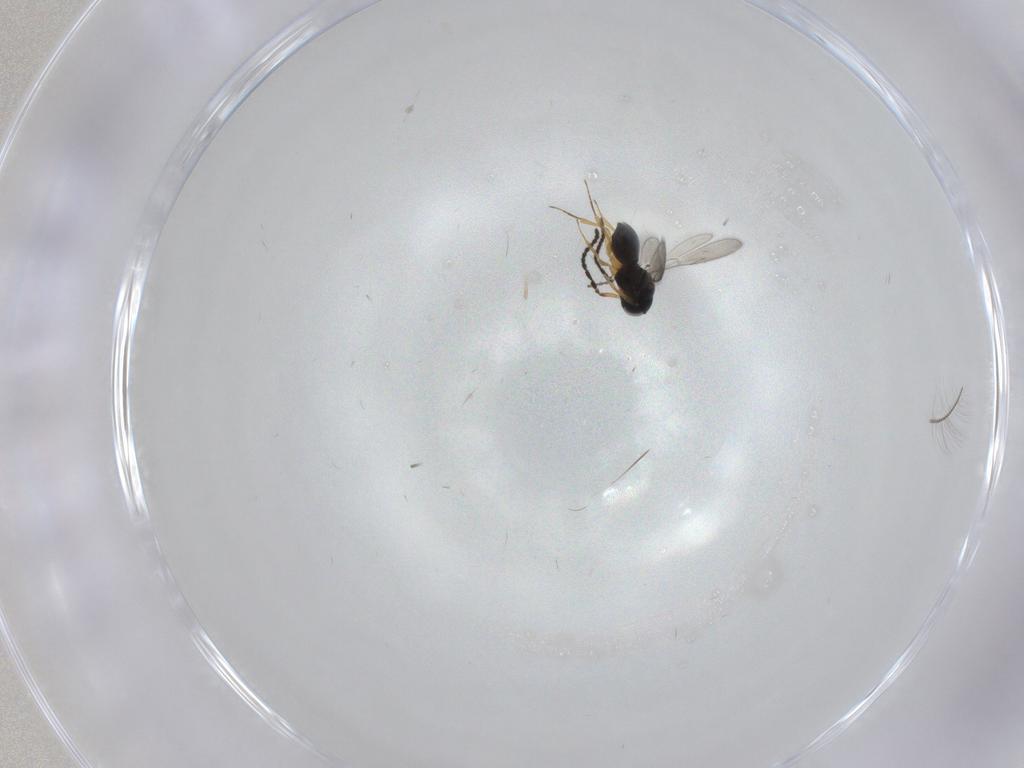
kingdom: Animalia
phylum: Arthropoda
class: Insecta
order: Hymenoptera
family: Scelionidae
